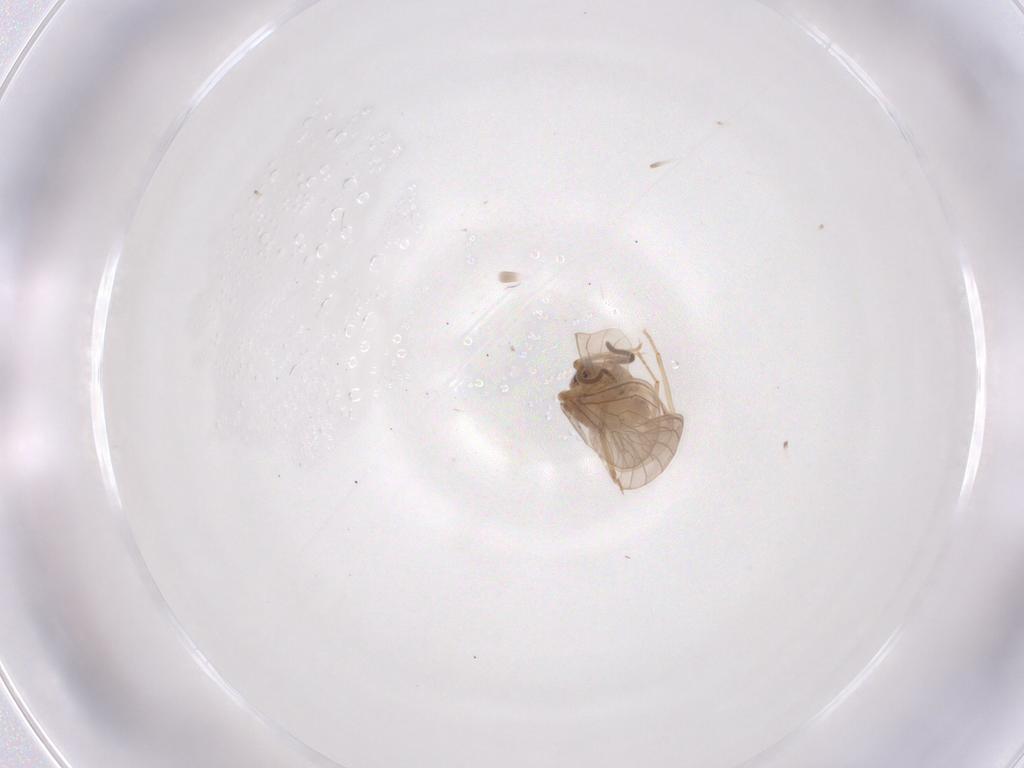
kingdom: Animalia
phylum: Arthropoda
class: Insecta
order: Neuroptera
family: Coniopterygidae
